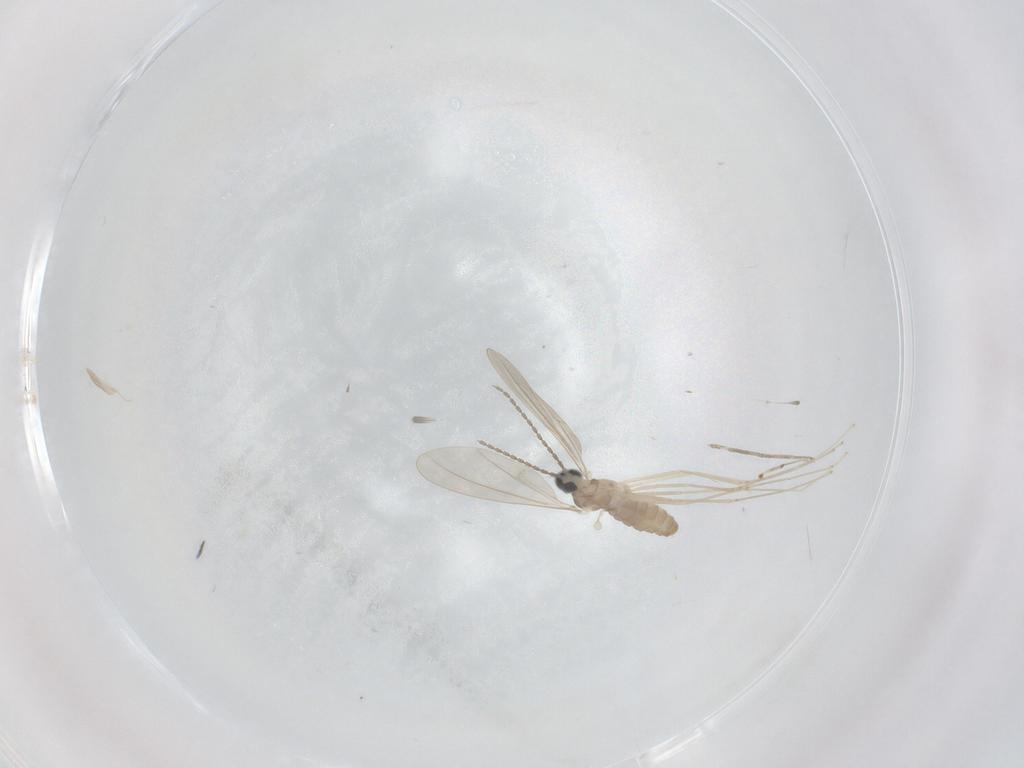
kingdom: Animalia
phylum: Arthropoda
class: Insecta
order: Diptera
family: Cecidomyiidae
